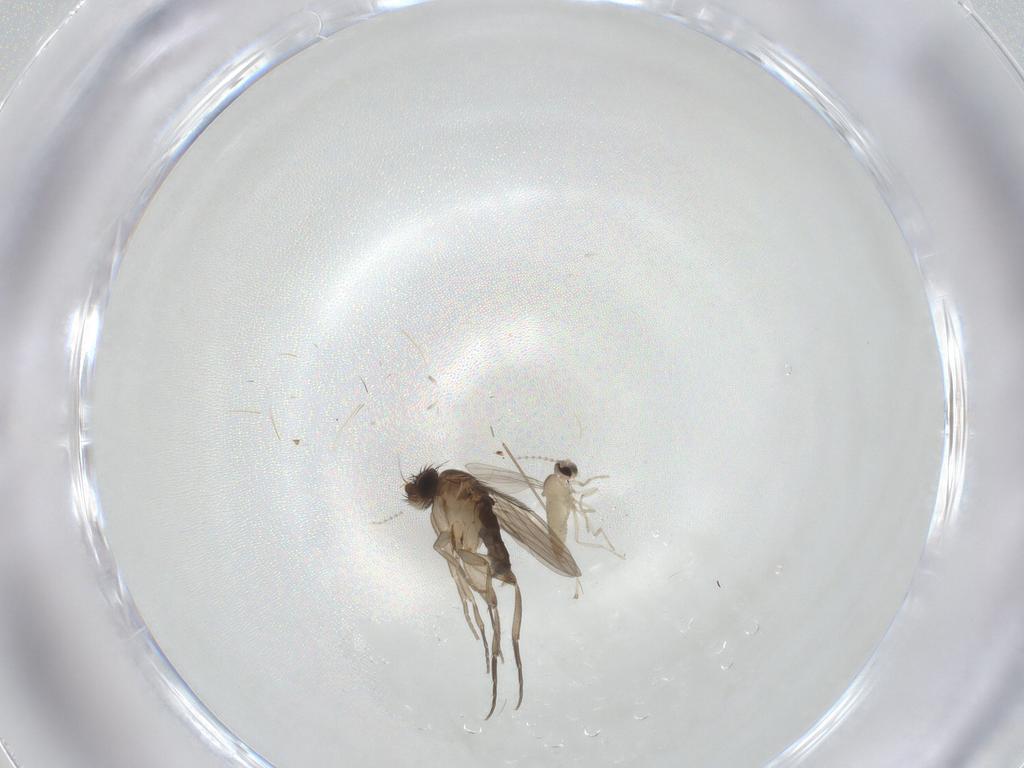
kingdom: Animalia
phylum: Arthropoda
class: Insecta
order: Diptera
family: Phoridae
